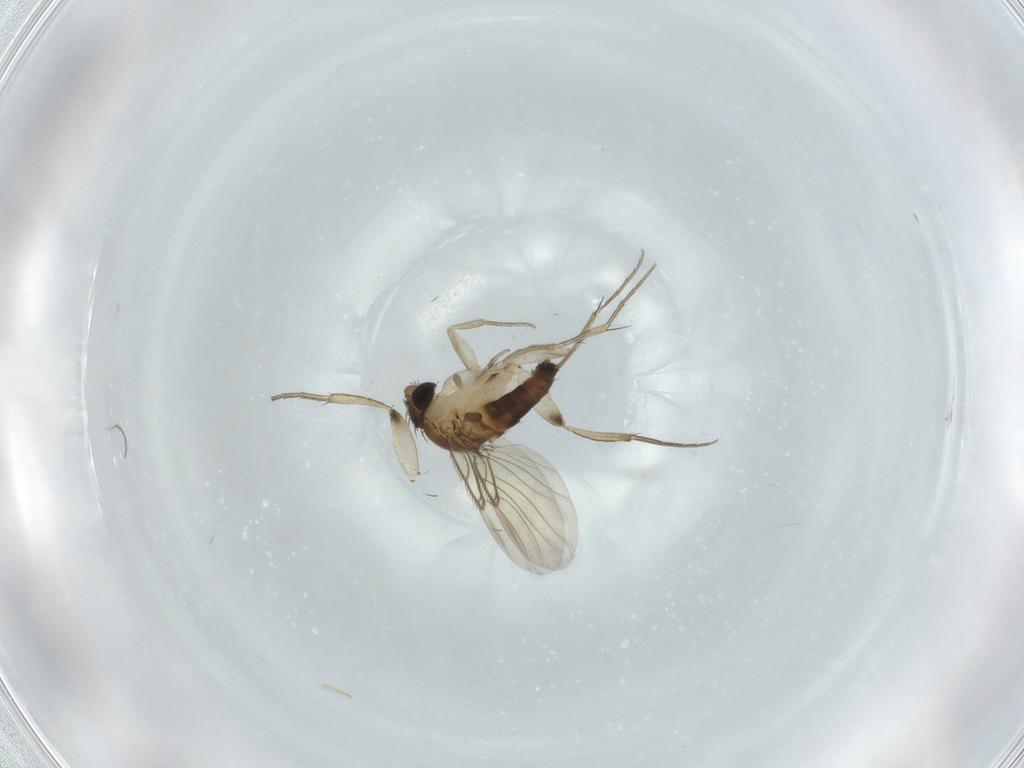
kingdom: Animalia
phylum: Arthropoda
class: Insecta
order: Diptera
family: Phoridae
